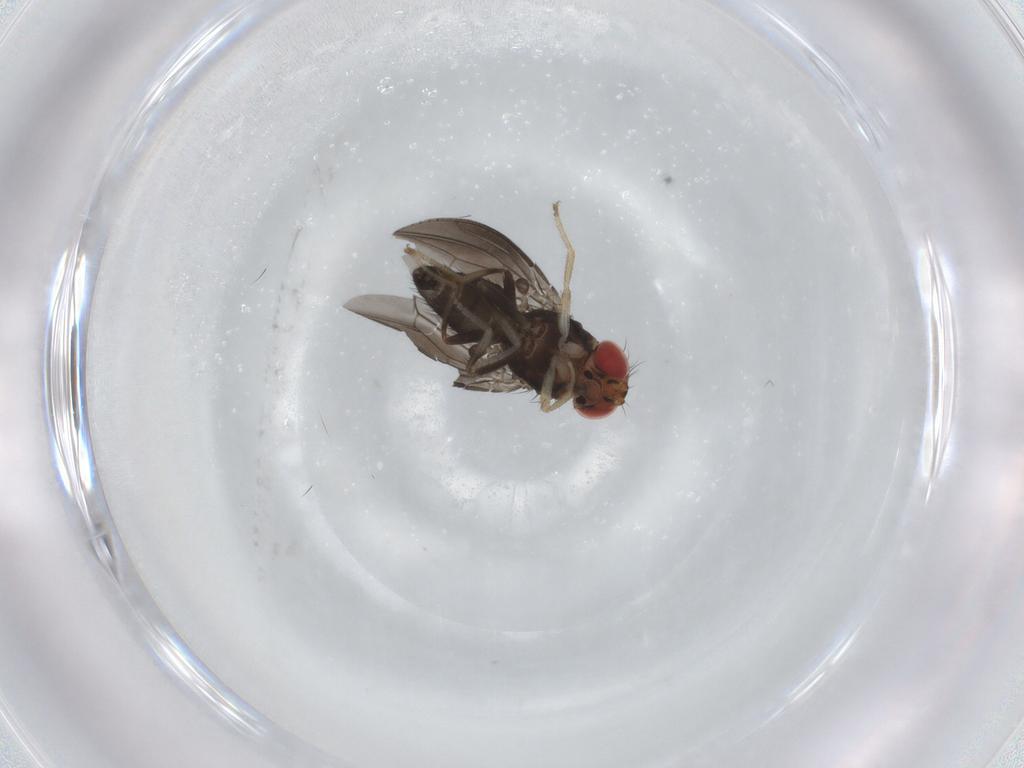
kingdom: Animalia
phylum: Arthropoda
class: Insecta
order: Diptera
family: Drosophilidae
